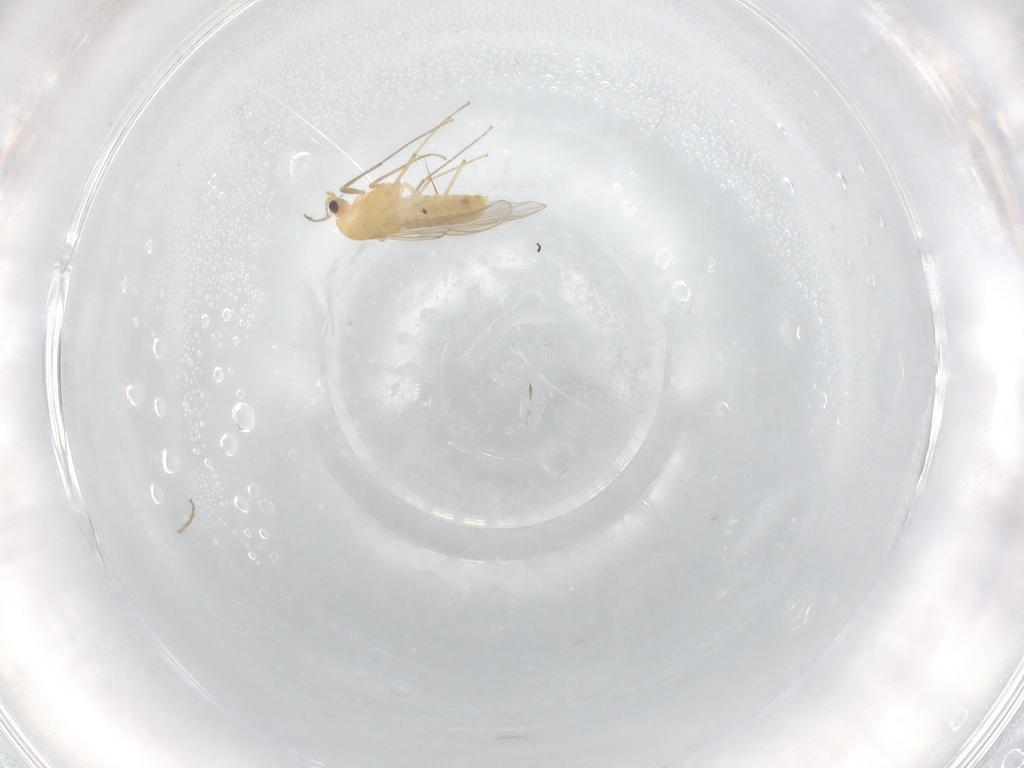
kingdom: Animalia
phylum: Arthropoda
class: Insecta
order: Diptera
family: Chironomidae
